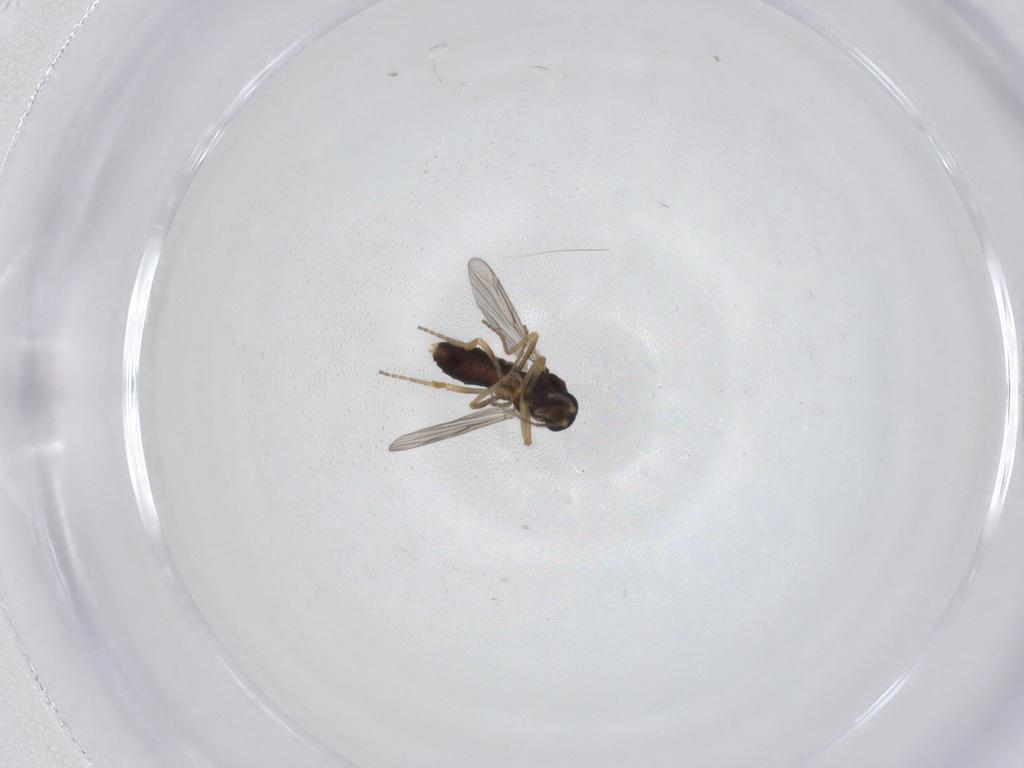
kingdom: Animalia
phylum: Arthropoda
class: Insecta
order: Diptera
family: Ceratopogonidae
